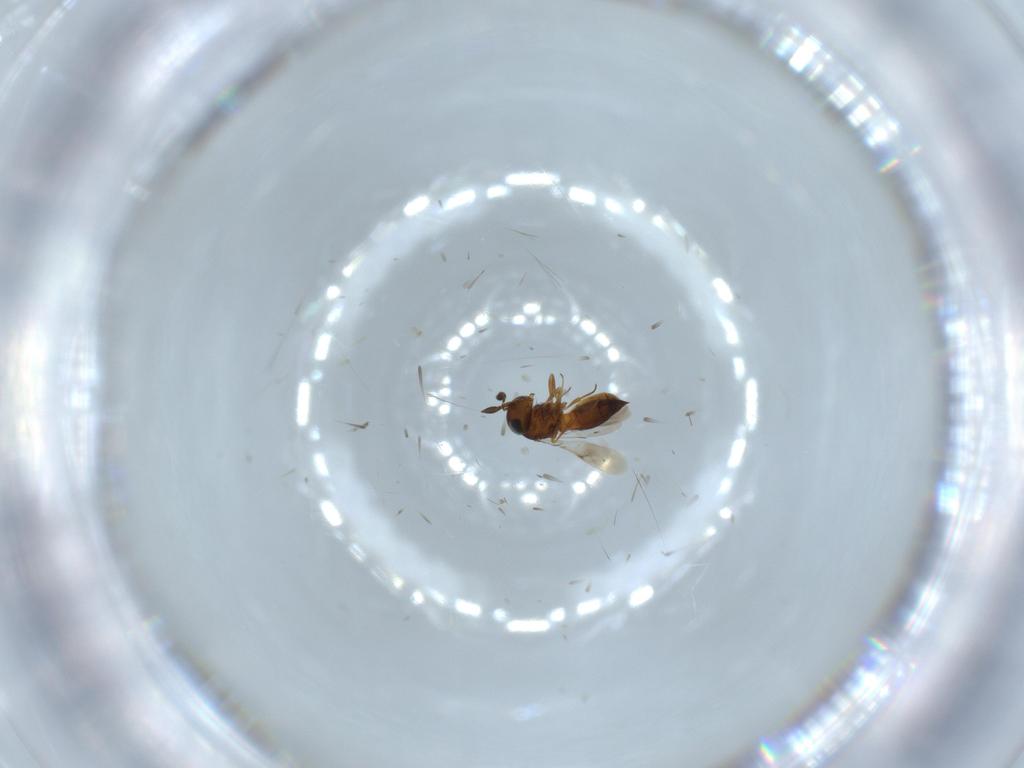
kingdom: Animalia
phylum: Arthropoda
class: Insecta
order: Hymenoptera
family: Scelionidae
